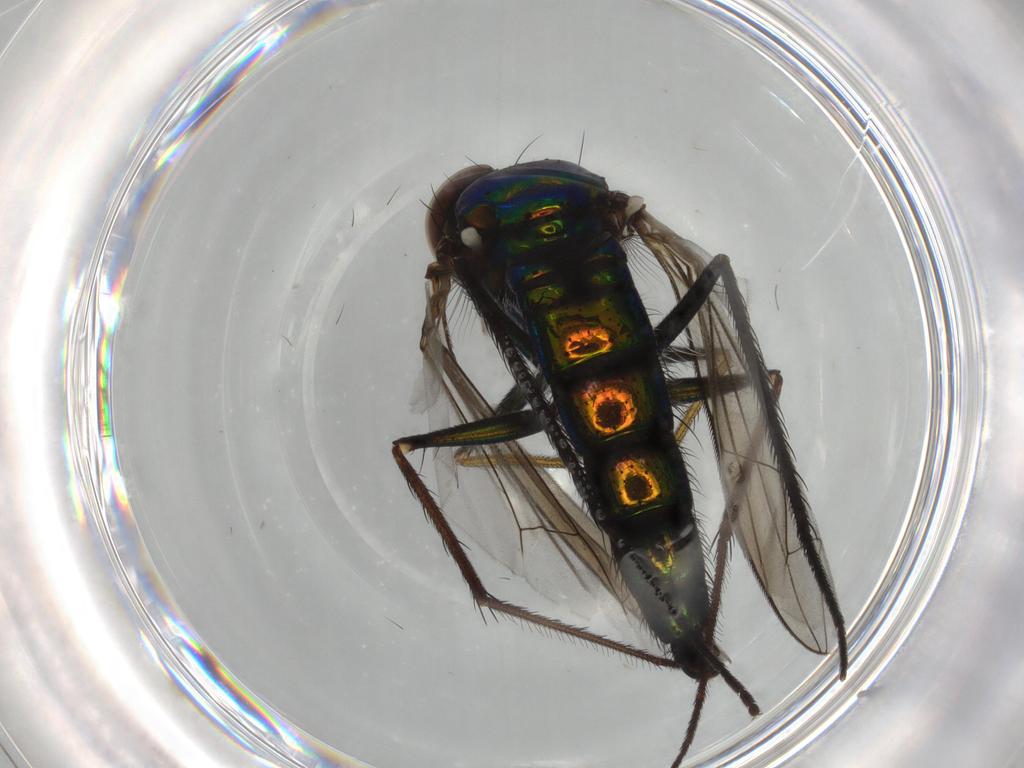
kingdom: Animalia
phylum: Arthropoda
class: Insecta
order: Diptera
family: Dolichopodidae
